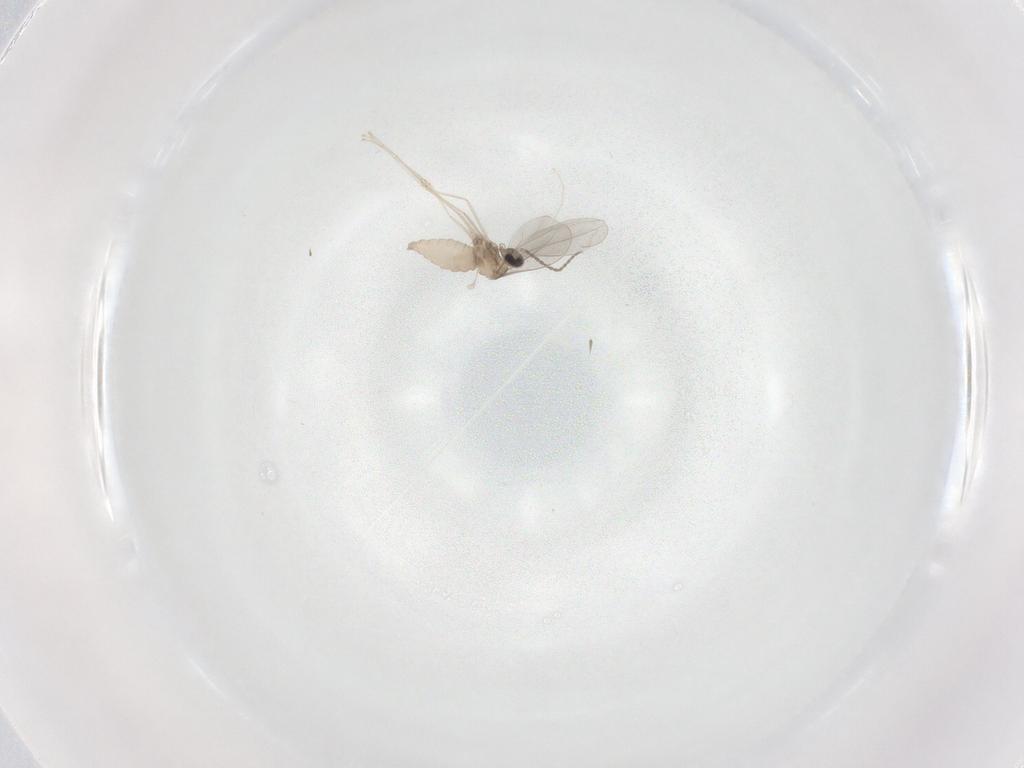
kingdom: Animalia
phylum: Arthropoda
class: Insecta
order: Diptera
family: Cecidomyiidae
